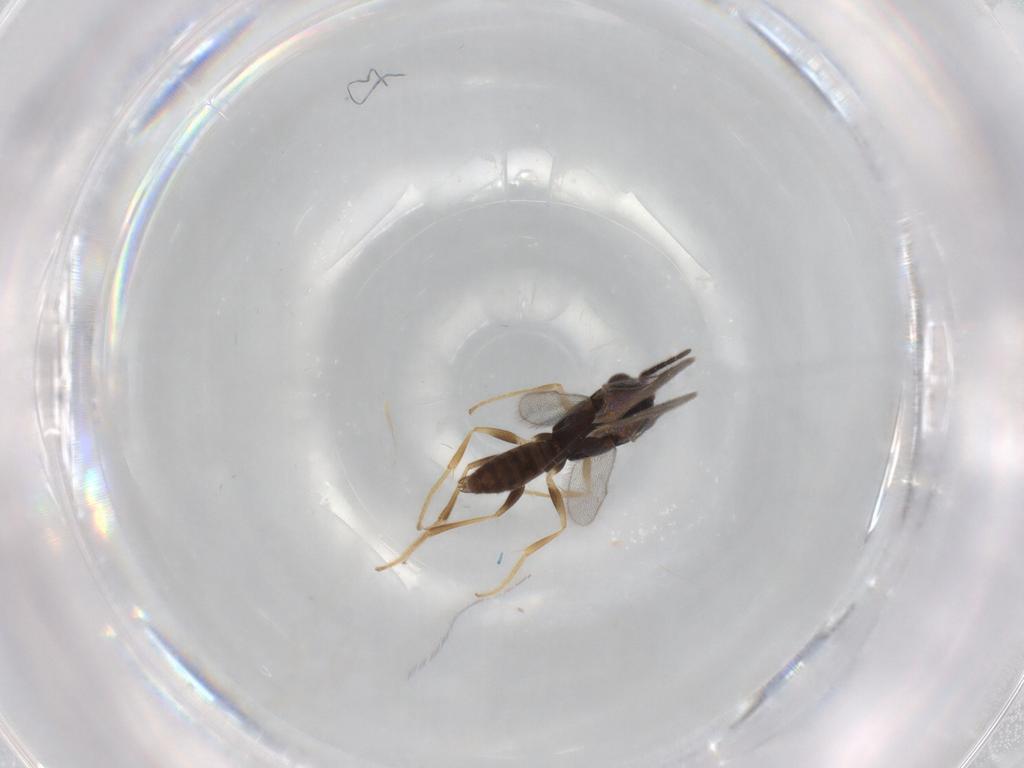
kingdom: Animalia
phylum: Arthropoda
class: Insecta
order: Hymenoptera
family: Dryinidae
